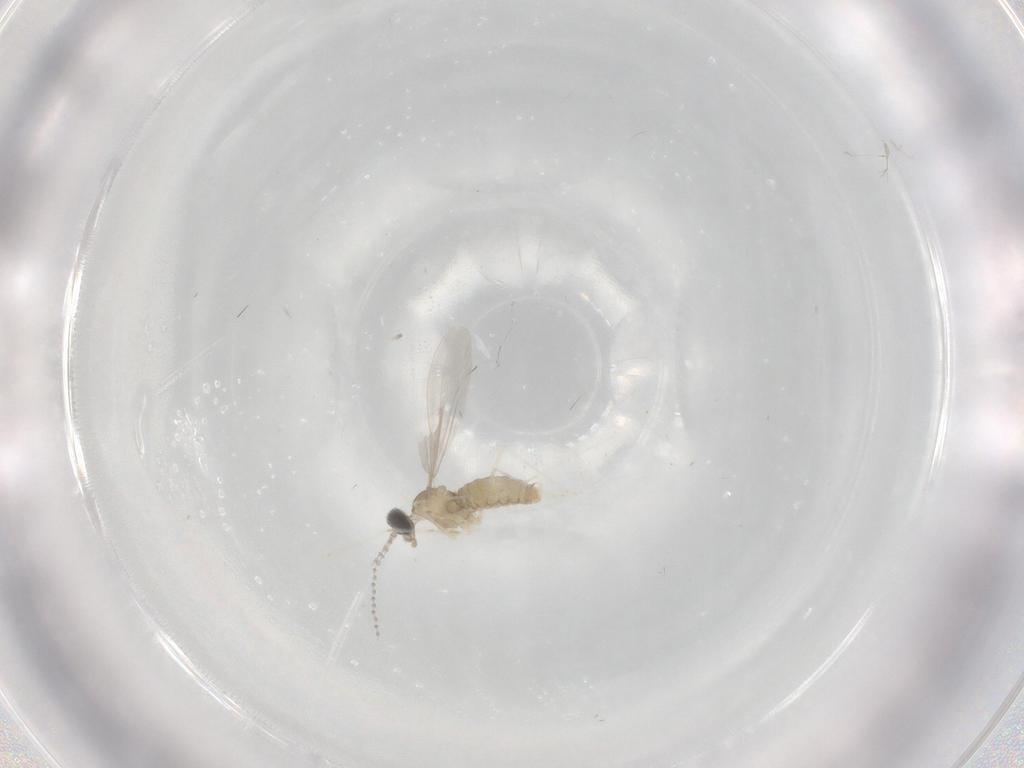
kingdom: Animalia
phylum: Arthropoda
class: Insecta
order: Diptera
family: Cecidomyiidae
